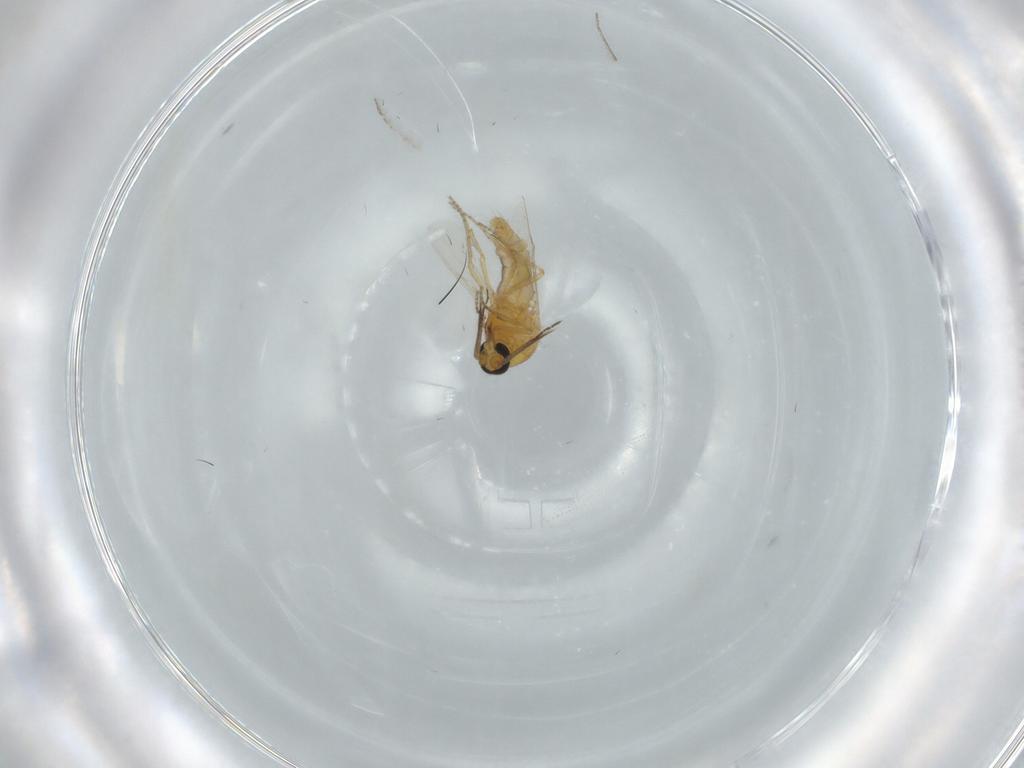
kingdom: Animalia
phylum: Arthropoda
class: Insecta
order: Diptera
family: Ceratopogonidae
